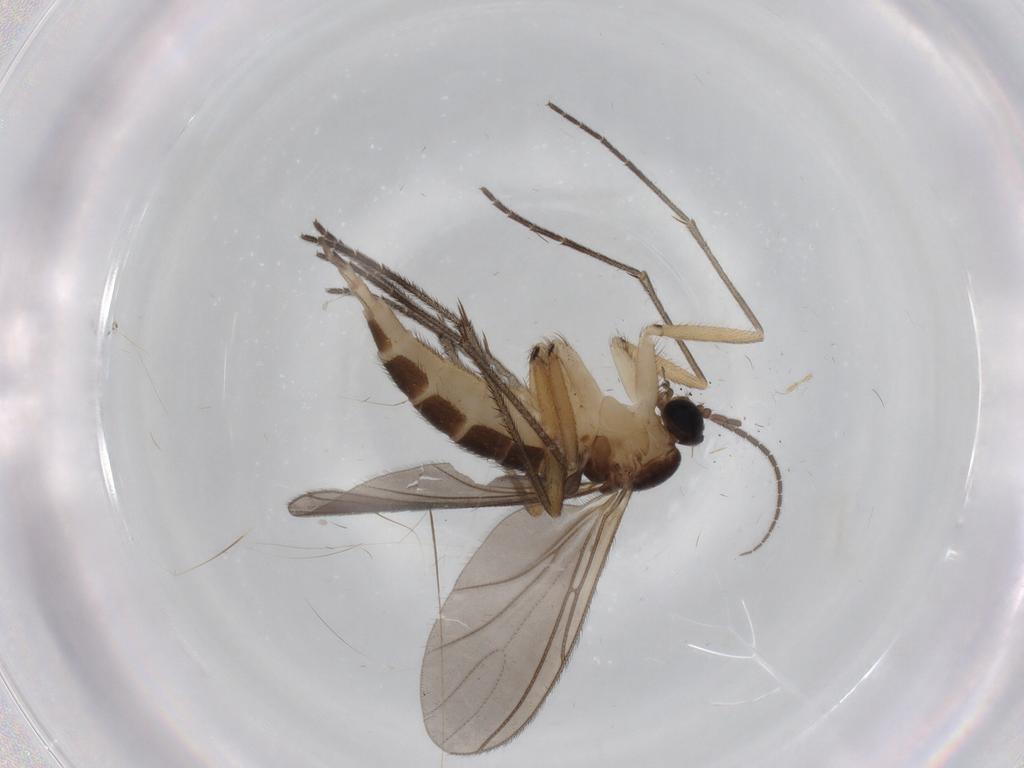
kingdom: Animalia
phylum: Arthropoda
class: Insecta
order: Diptera
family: Sciaridae
